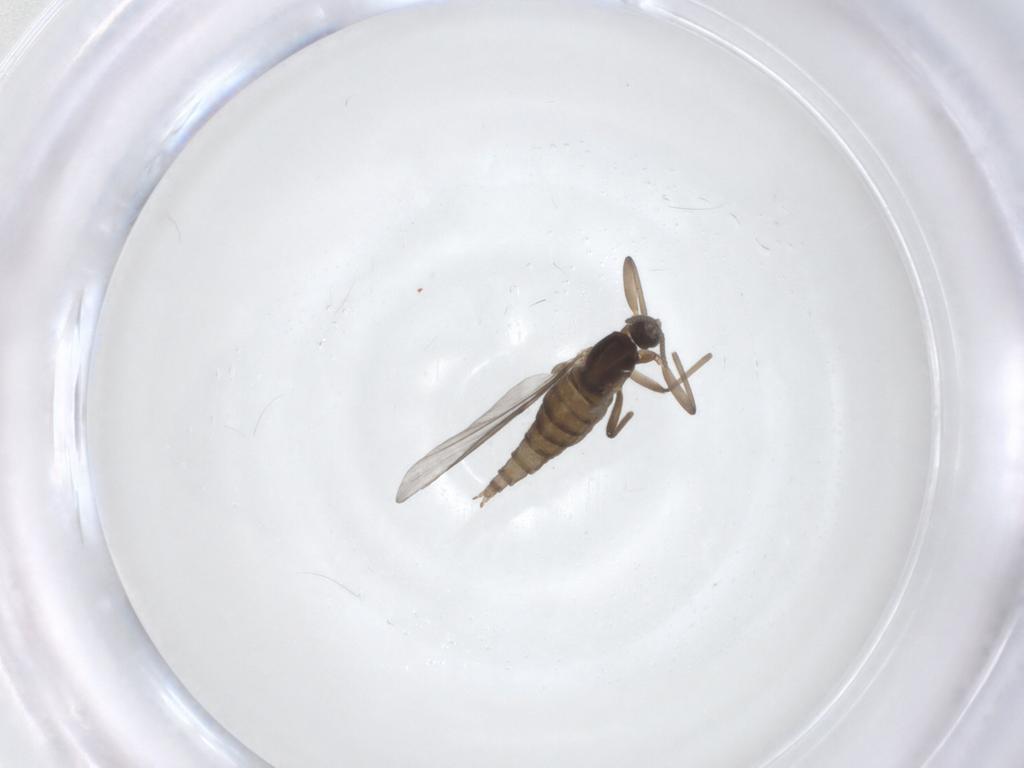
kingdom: Animalia
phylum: Arthropoda
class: Insecta
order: Diptera
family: Cecidomyiidae
